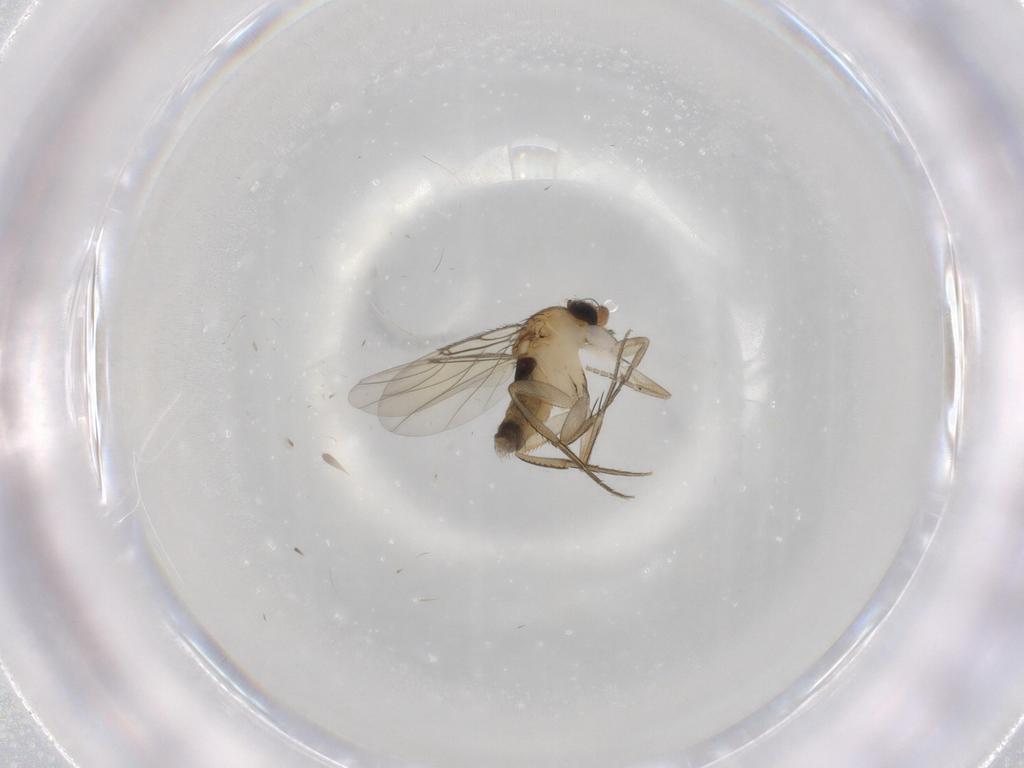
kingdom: Animalia
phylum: Arthropoda
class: Insecta
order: Diptera
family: Phoridae
